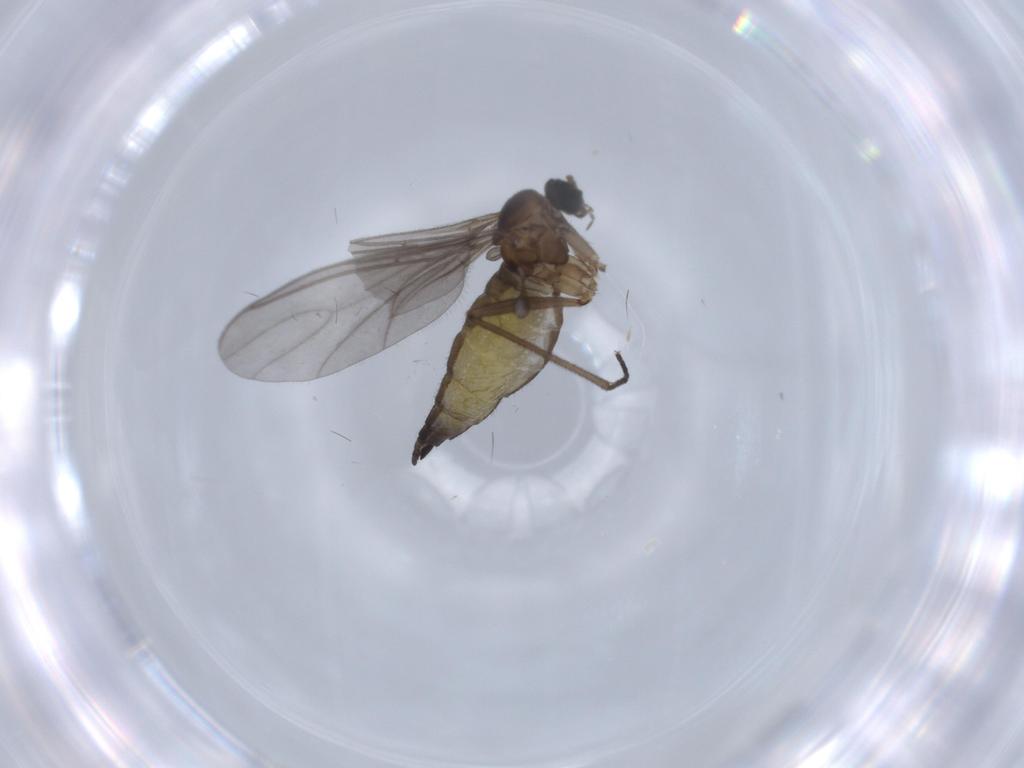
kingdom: Animalia
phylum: Arthropoda
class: Insecta
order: Diptera
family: Sciaridae
